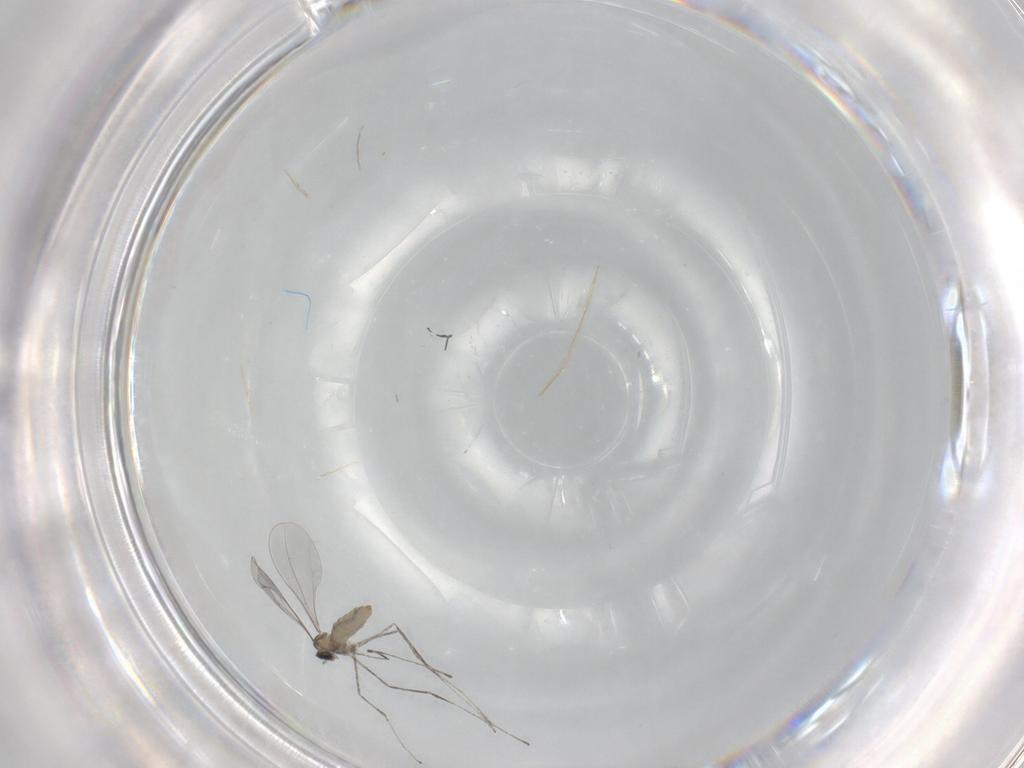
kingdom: Animalia
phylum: Arthropoda
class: Insecta
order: Diptera
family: Sciaridae
